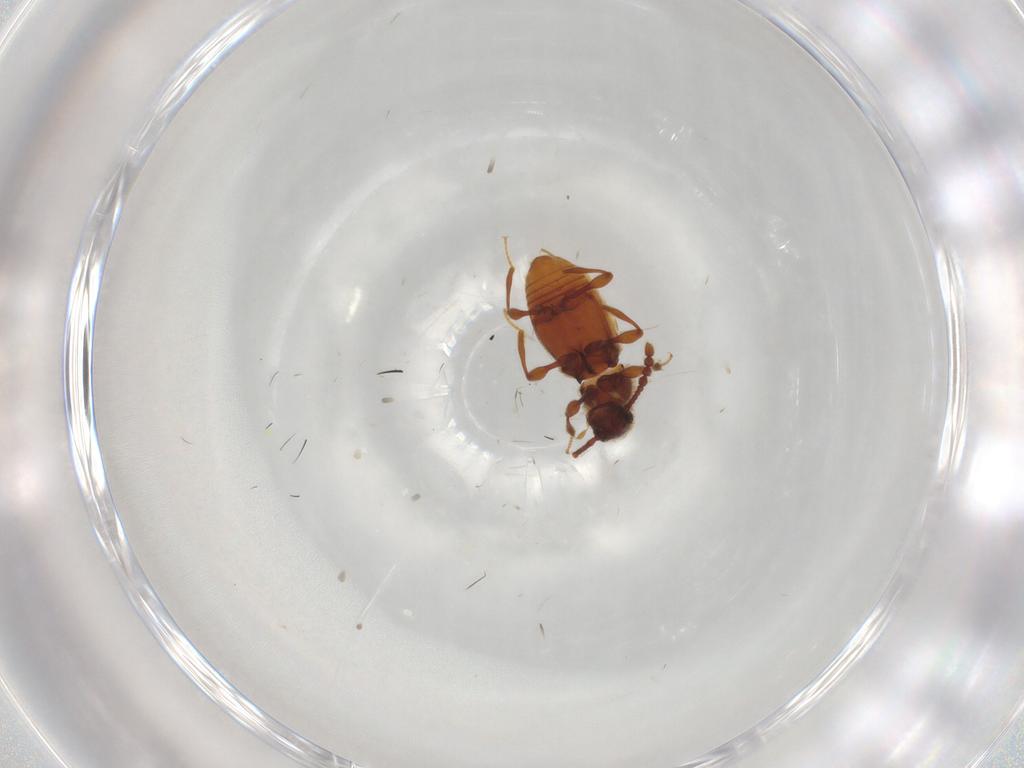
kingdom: Animalia
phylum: Arthropoda
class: Insecta
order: Coleoptera
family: Staphylinidae
